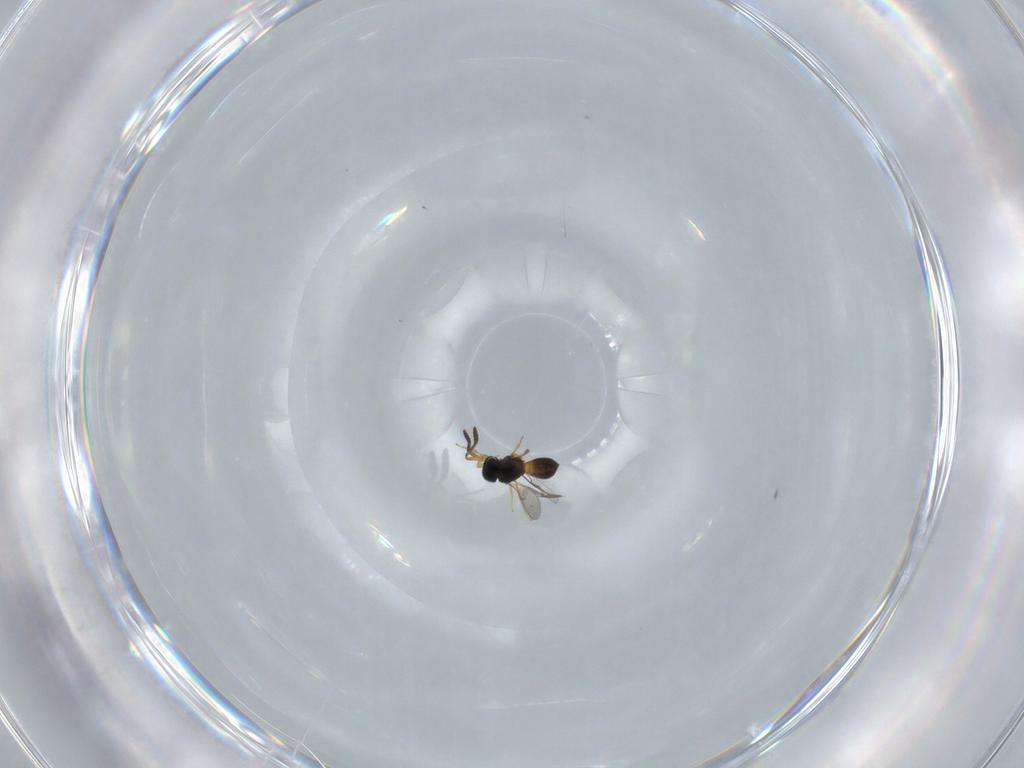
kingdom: Animalia
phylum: Arthropoda
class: Insecta
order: Hymenoptera
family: Scelionidae
